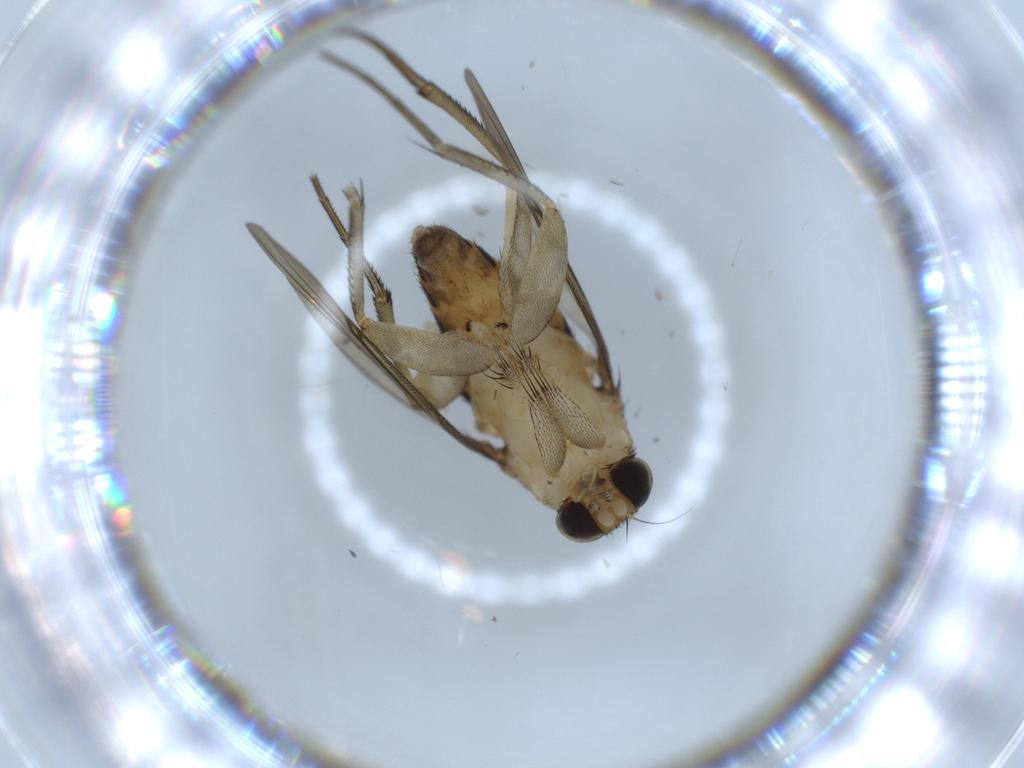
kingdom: Animalia
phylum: Arthropoda
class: Insecta
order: Diptera
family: Mycetophilidae
